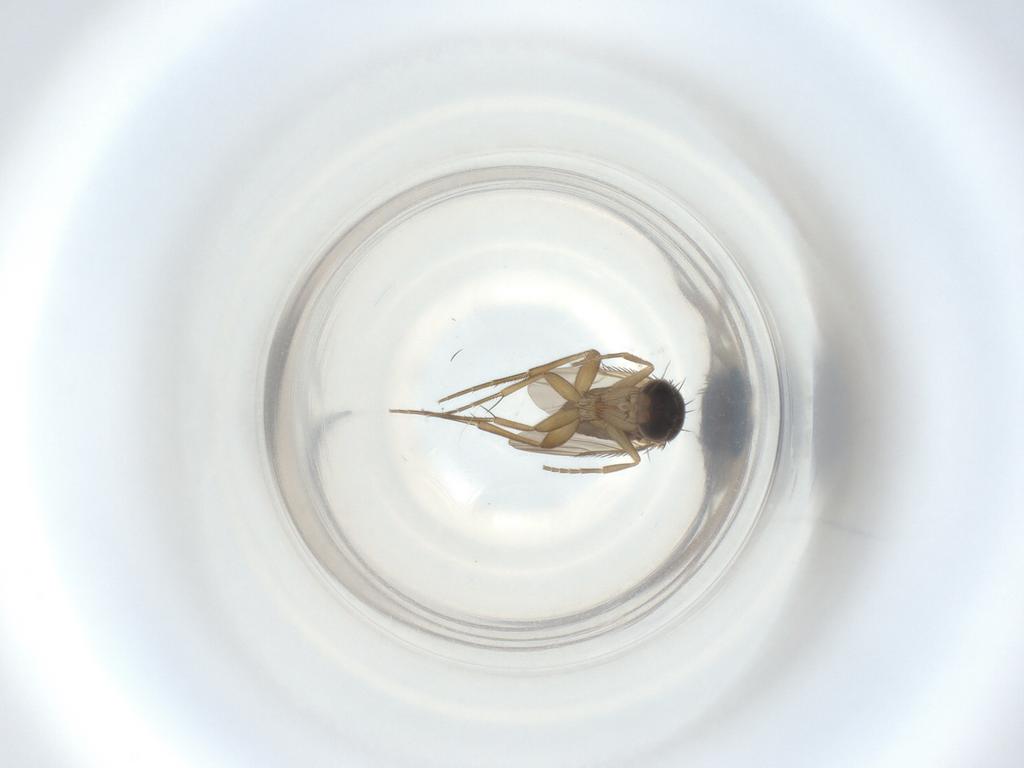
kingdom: Animalia
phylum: Arthropoda
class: Insecta
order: Diptera
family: Phoridae
